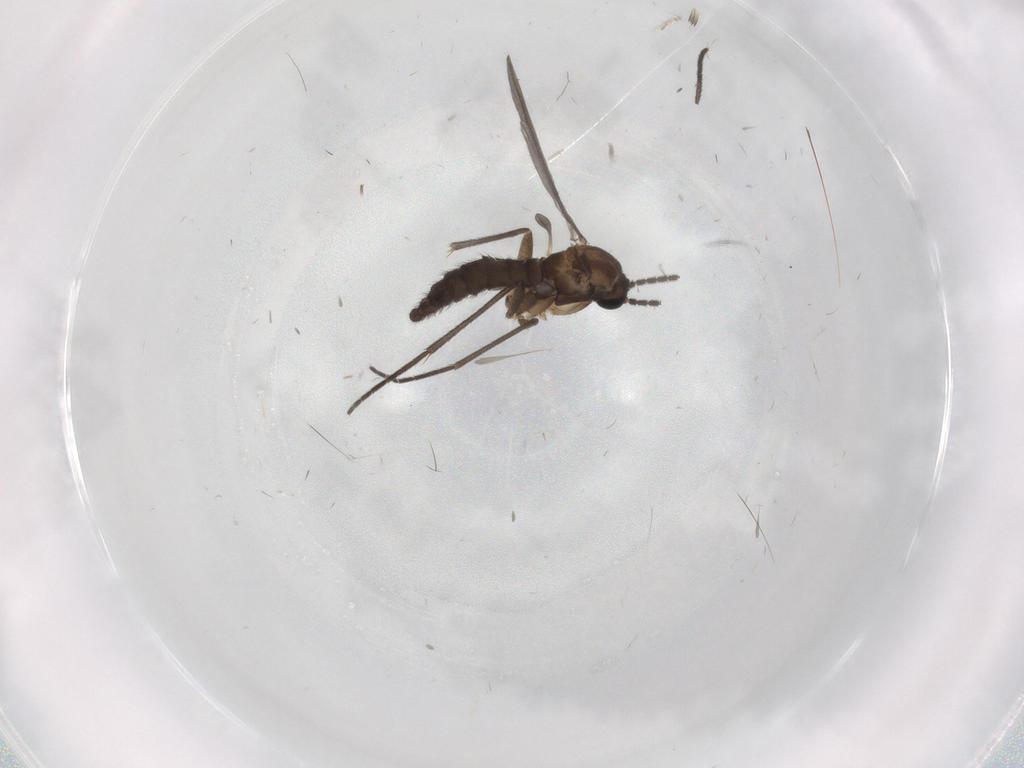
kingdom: Animalia
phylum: Arthropoda
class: Insecta
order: Diptera
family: Sciaridae
